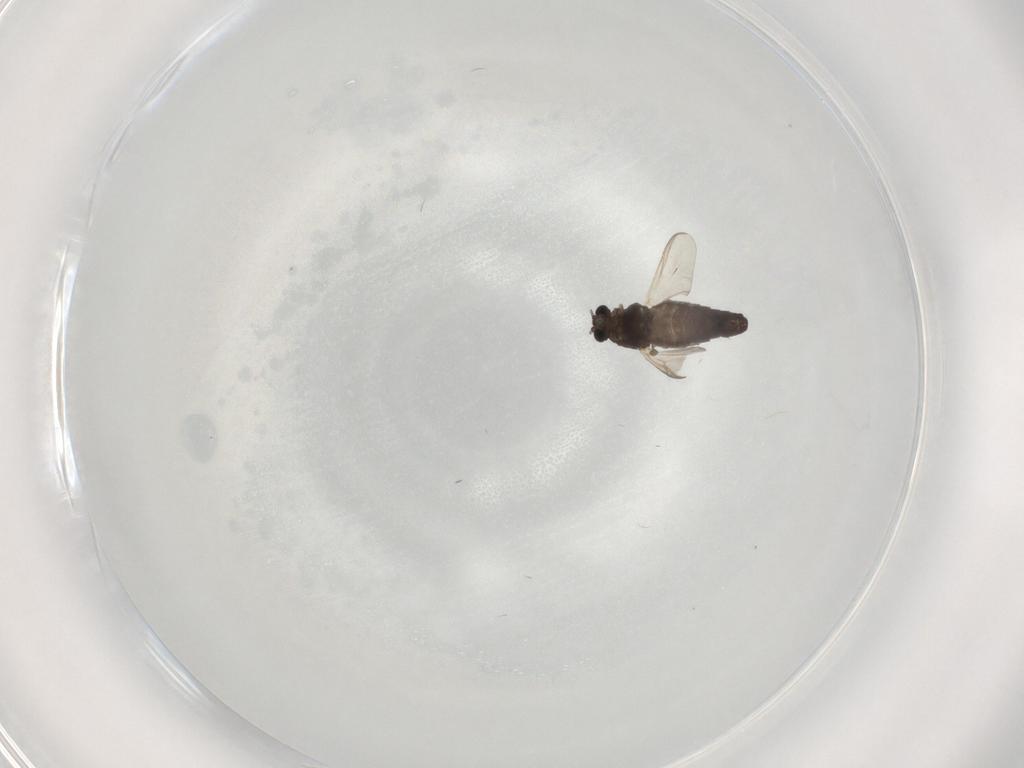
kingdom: Animalia
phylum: Arthropoda
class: Insecta
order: Diptera
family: Chironomidae
